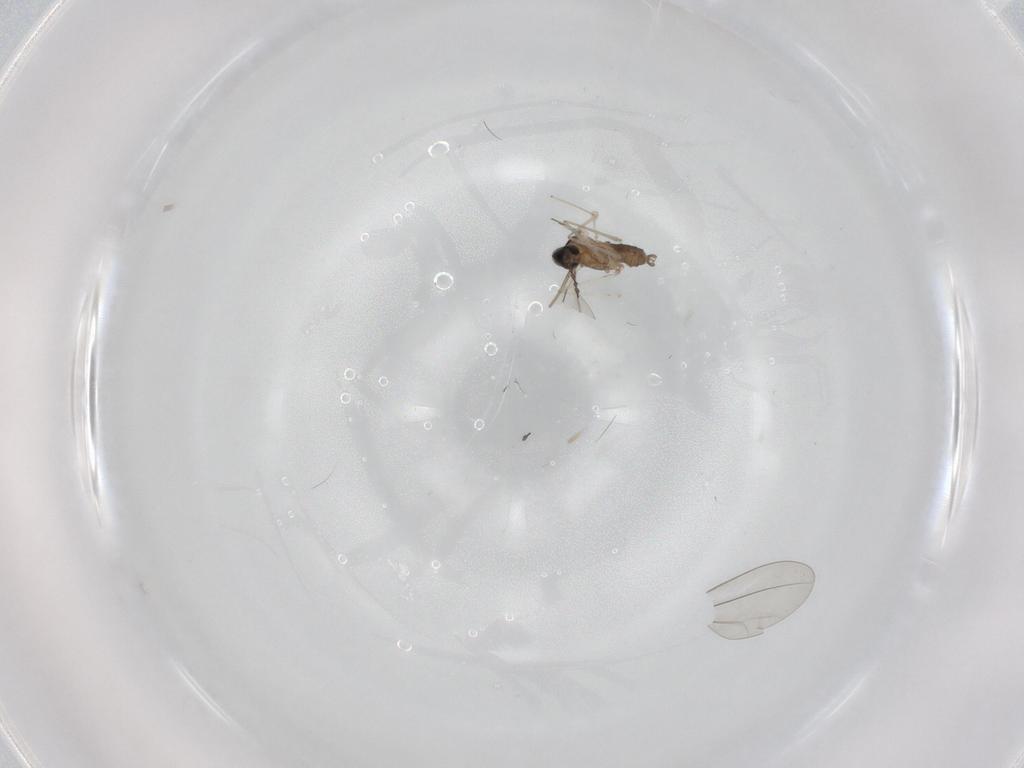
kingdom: Animalia
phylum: Arthropoda
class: Insecta
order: Diptera
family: Cecidomyiidae
